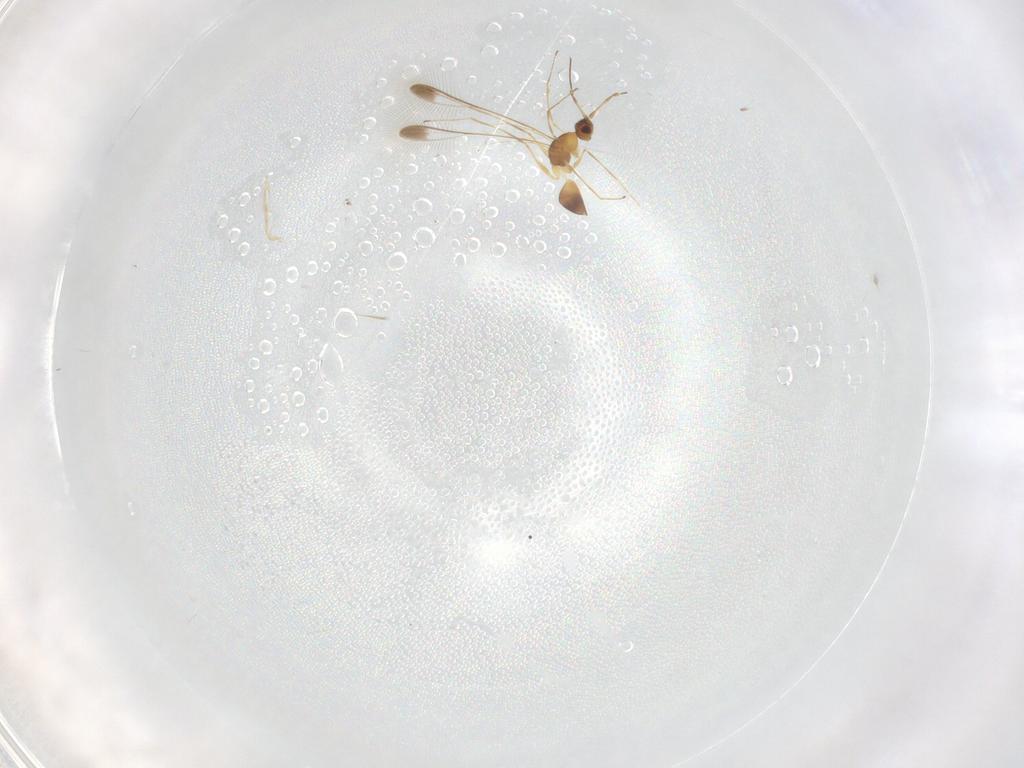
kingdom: Animalia
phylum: Arthropoda
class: Insecta
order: Hymenoptera
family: Mymaridae
